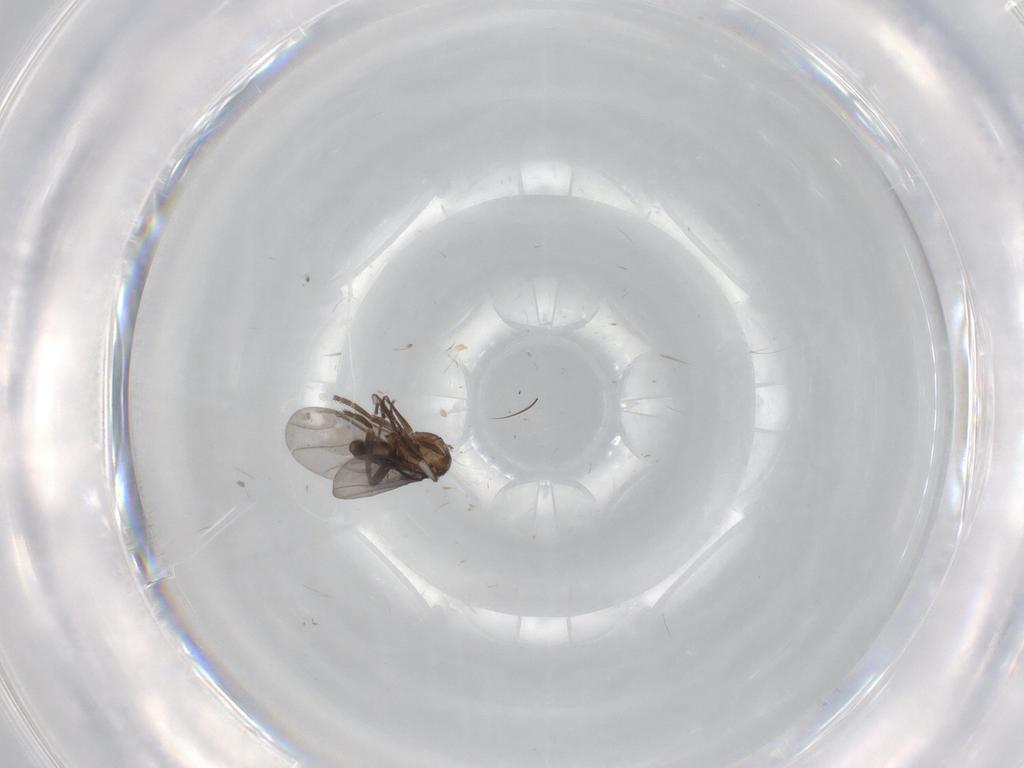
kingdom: Animalia
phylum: Arthropoda
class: Insecta
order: Diptera
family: Phoridae
